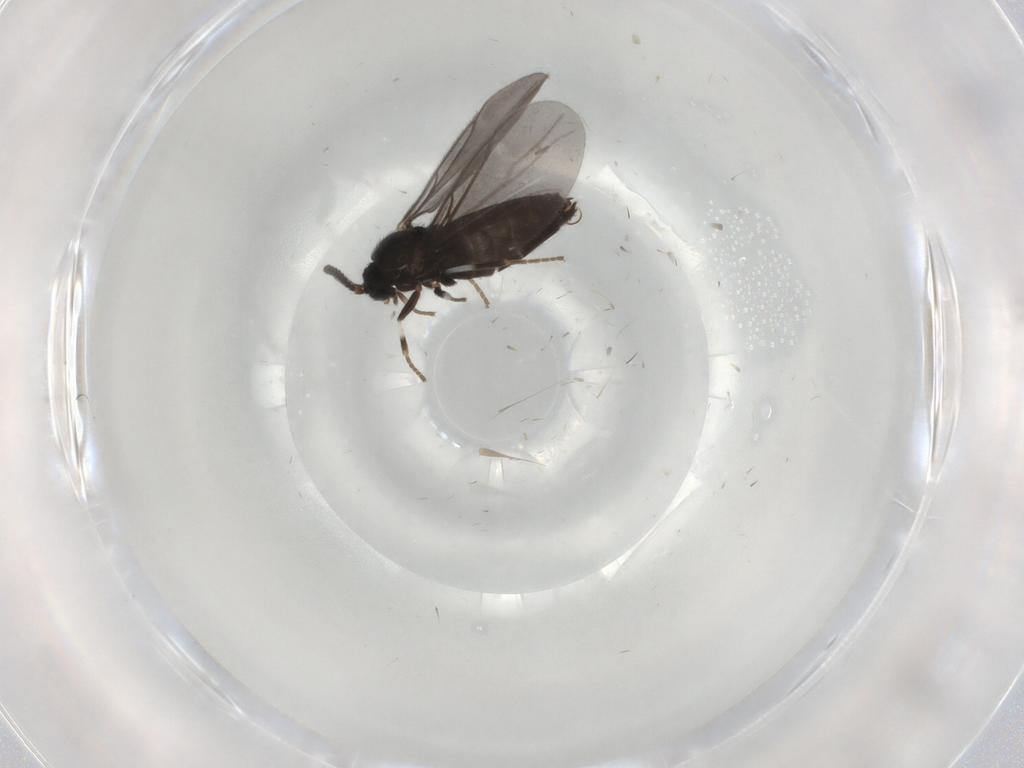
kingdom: Animalia
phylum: Arthropoda
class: Insecta
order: Diptera
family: Scatopsidae
